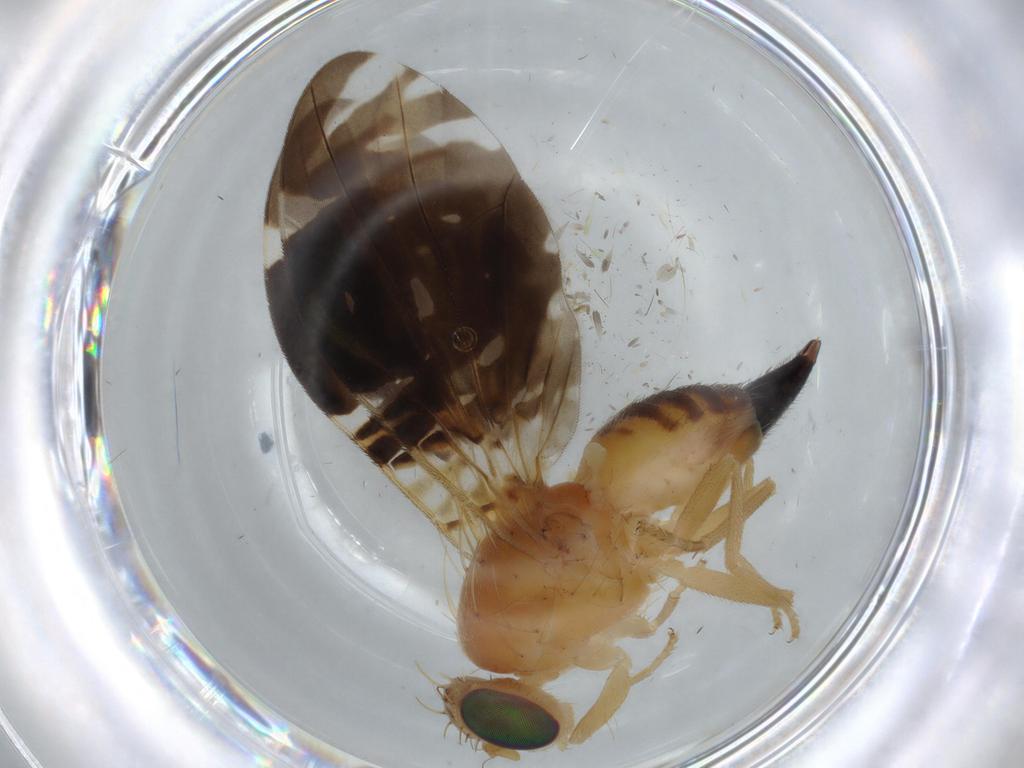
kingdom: Animalia
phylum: Arthropoda
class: Insecta
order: Diptera
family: Tephritidae
